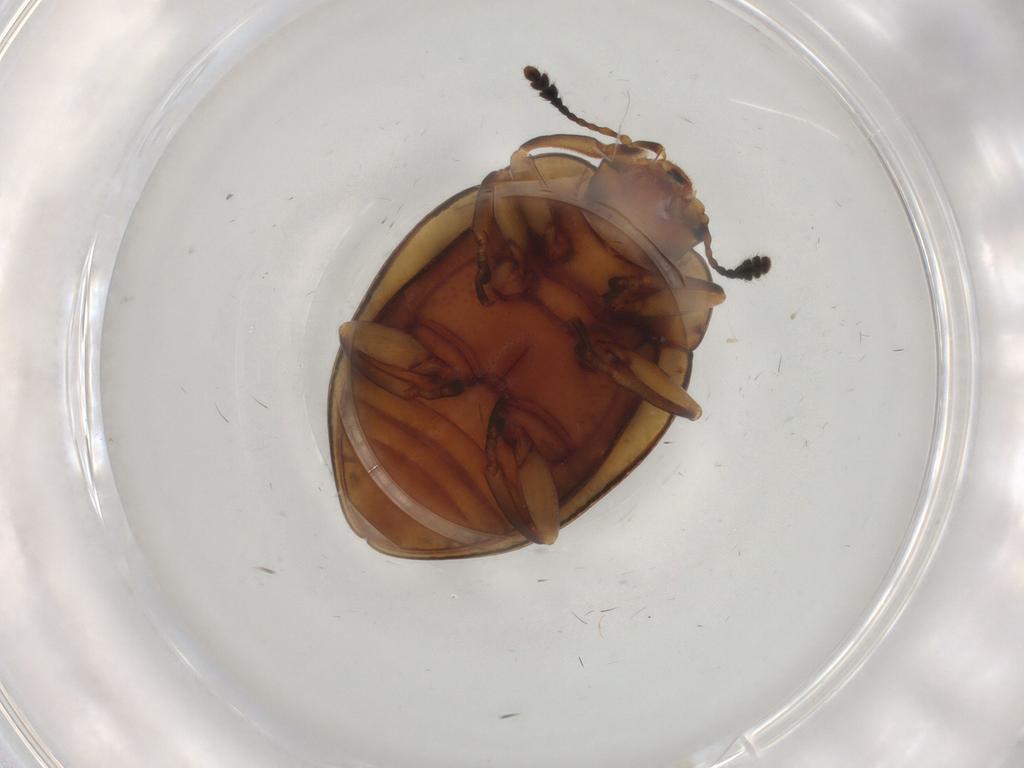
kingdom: Animalia
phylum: Arthropoda
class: Insecta
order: Coleoptera
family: Erotylidae
